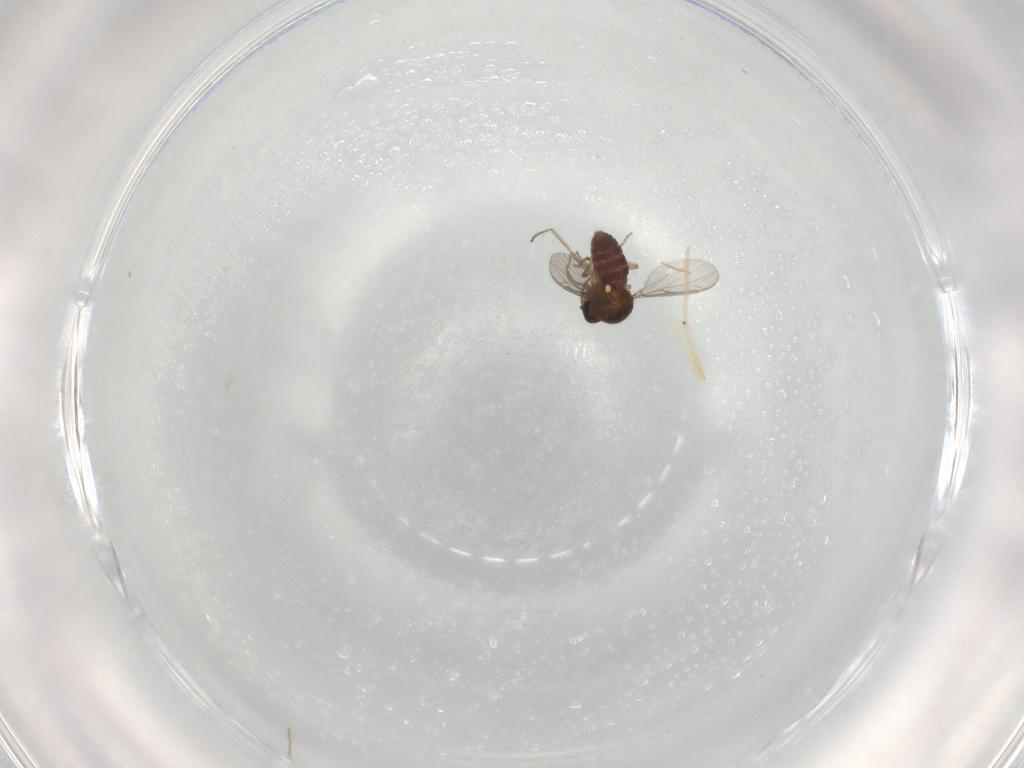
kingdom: Animalia
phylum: Arthropoda
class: Insecta
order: Diptera
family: Ceratopogonidae
